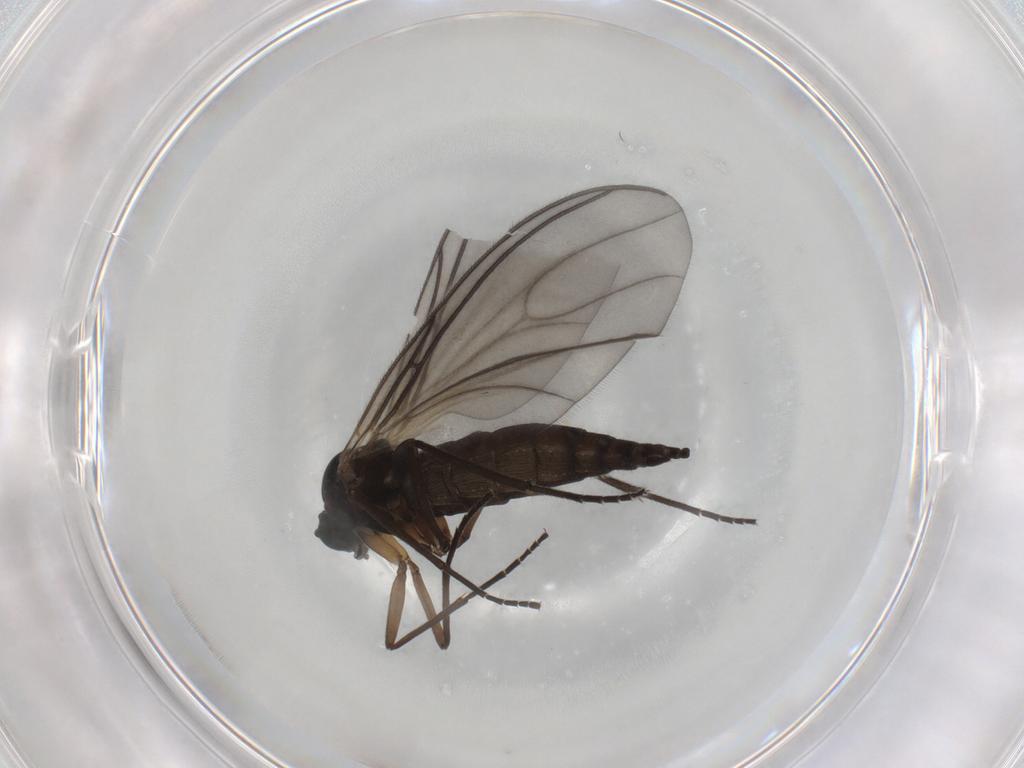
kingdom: Animalia
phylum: Arthropoda
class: Insecta
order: Diptera
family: Sciaridae
